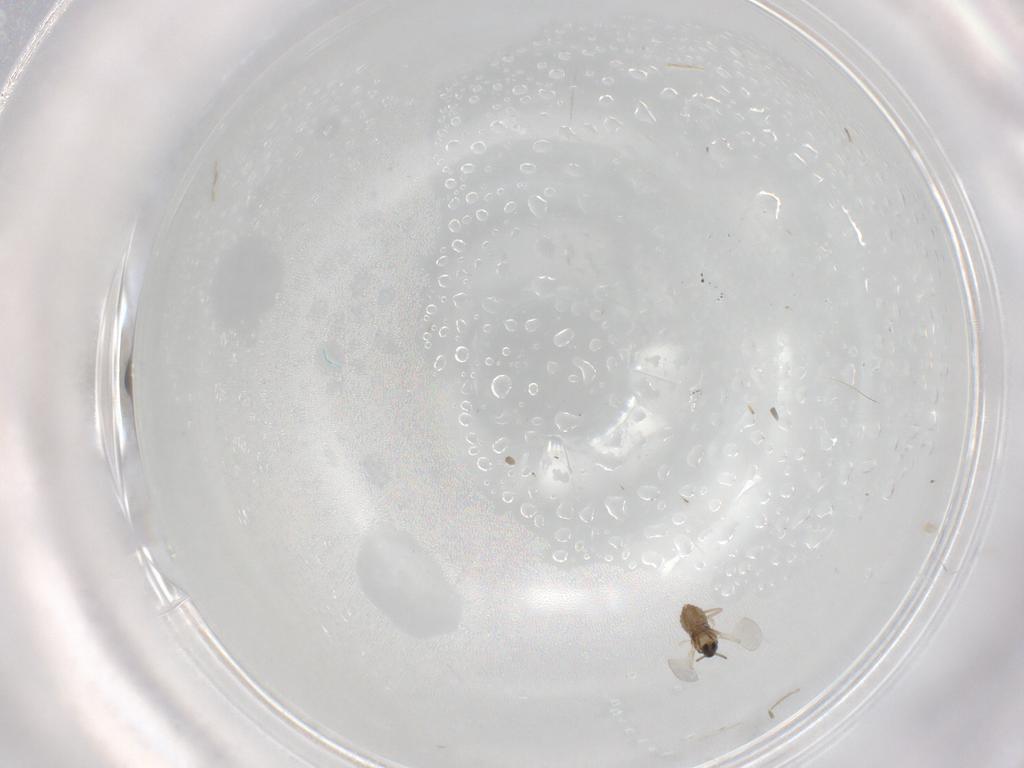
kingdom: Animalia
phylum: Arthropoda
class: Insecta
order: Diptera
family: Cecidomyiidae
